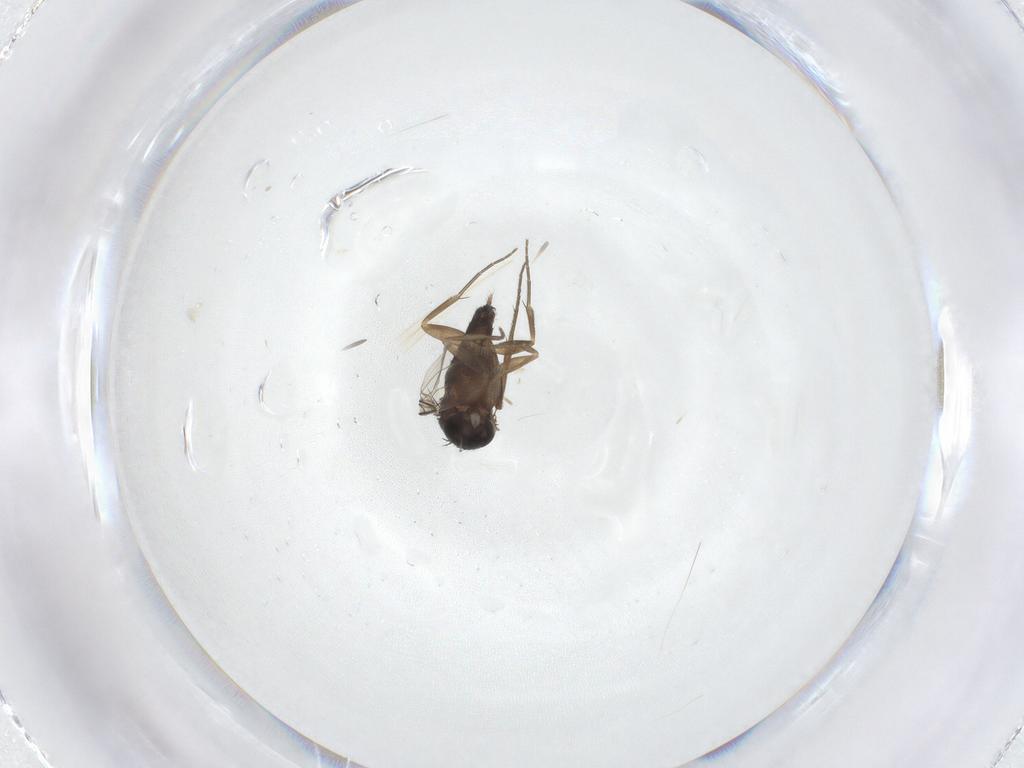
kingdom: Animalia
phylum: Arthropoda
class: Insecta
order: Diptera
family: Phoridae
